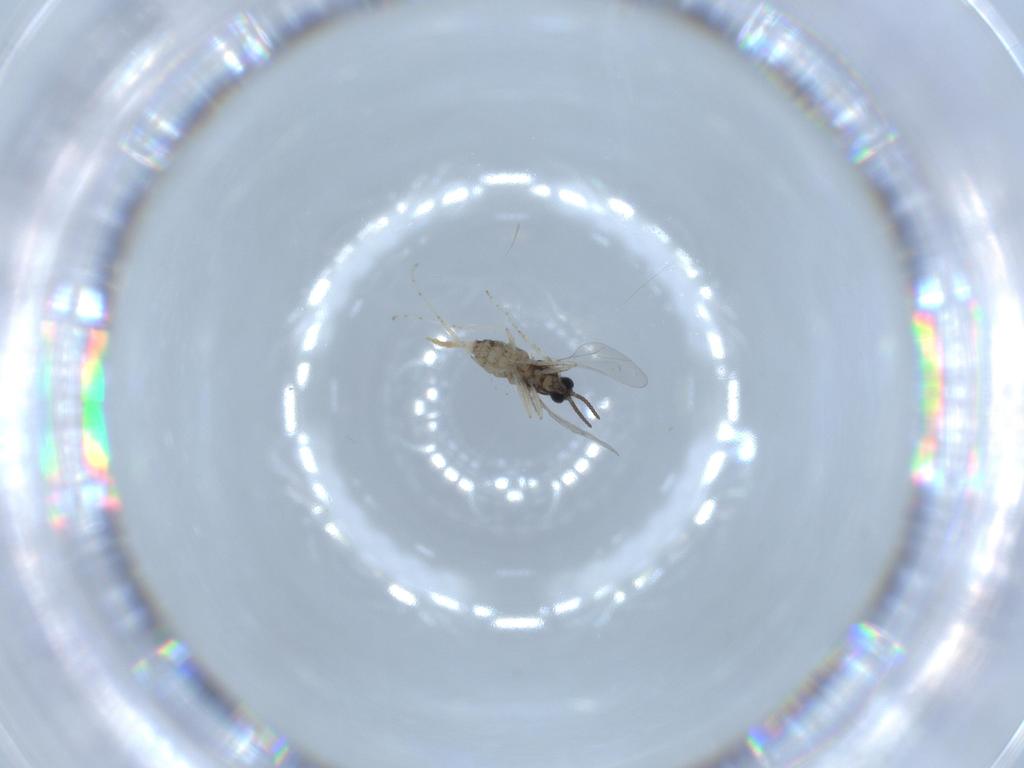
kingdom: Animalia
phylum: Arthropoda
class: Insecta
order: Diptera
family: Cecidomyiidae
